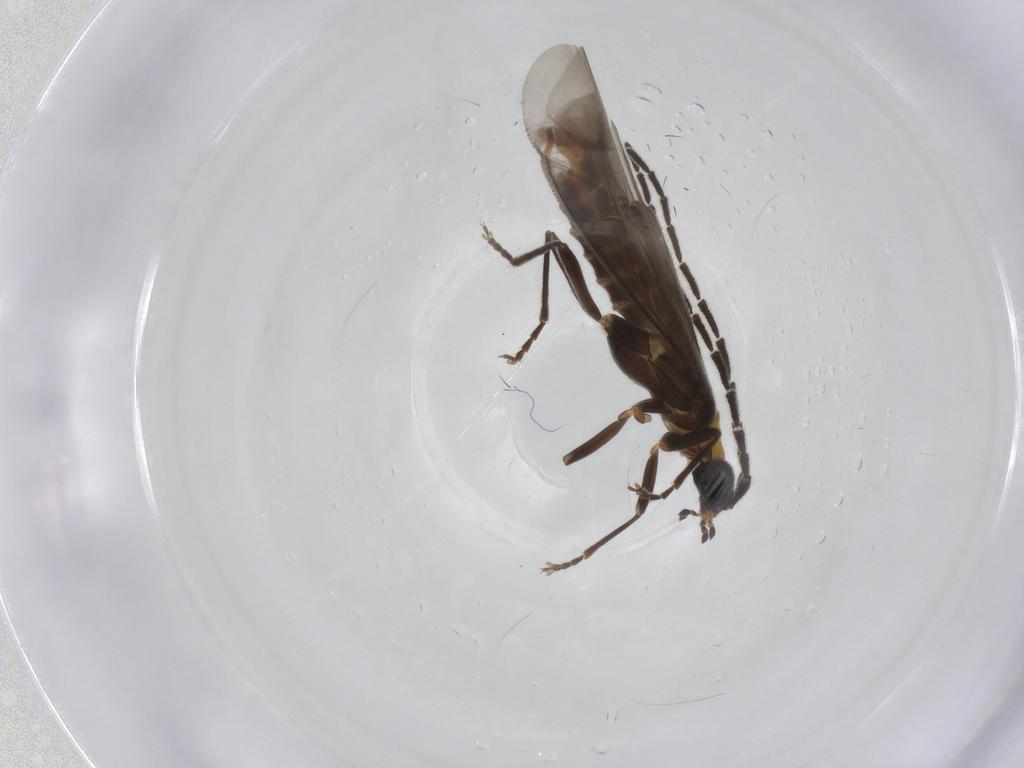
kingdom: Animalia
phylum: Arthropoda
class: Insecta
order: Coleoptera
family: Cantharidae
